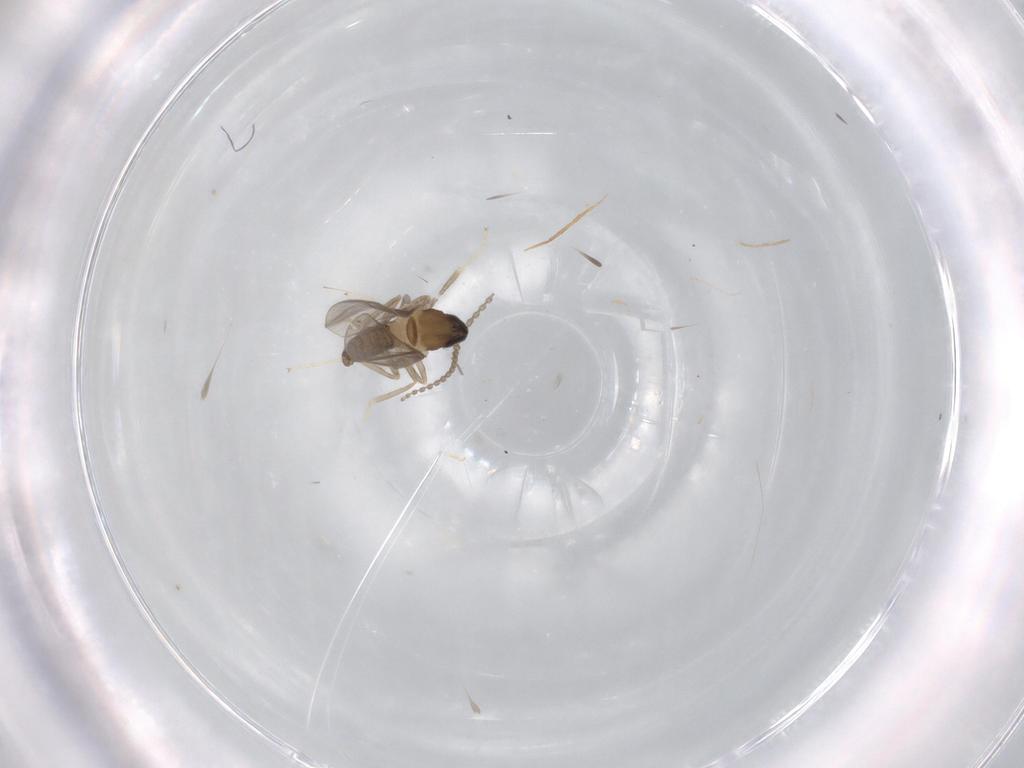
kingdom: Animalia
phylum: Arthropoda
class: Insecta
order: Diptera
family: Cecidomyiidae
